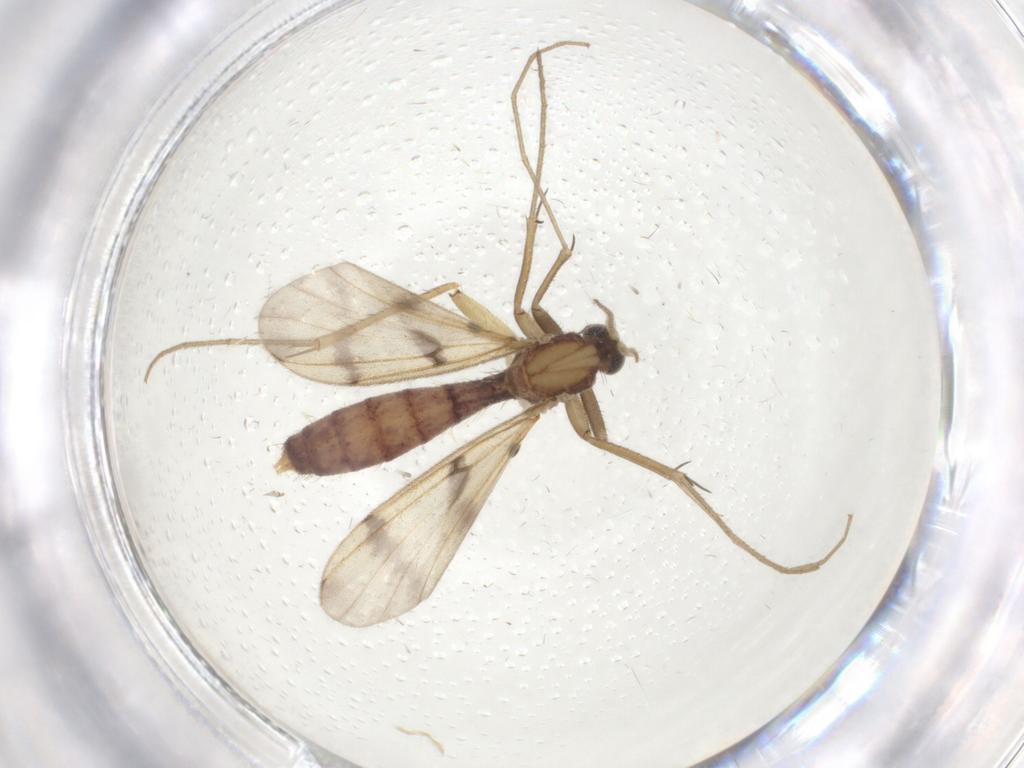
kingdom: Animalia
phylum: Arthropoda
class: Insecta
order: Diptera
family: Mycetophilidae
